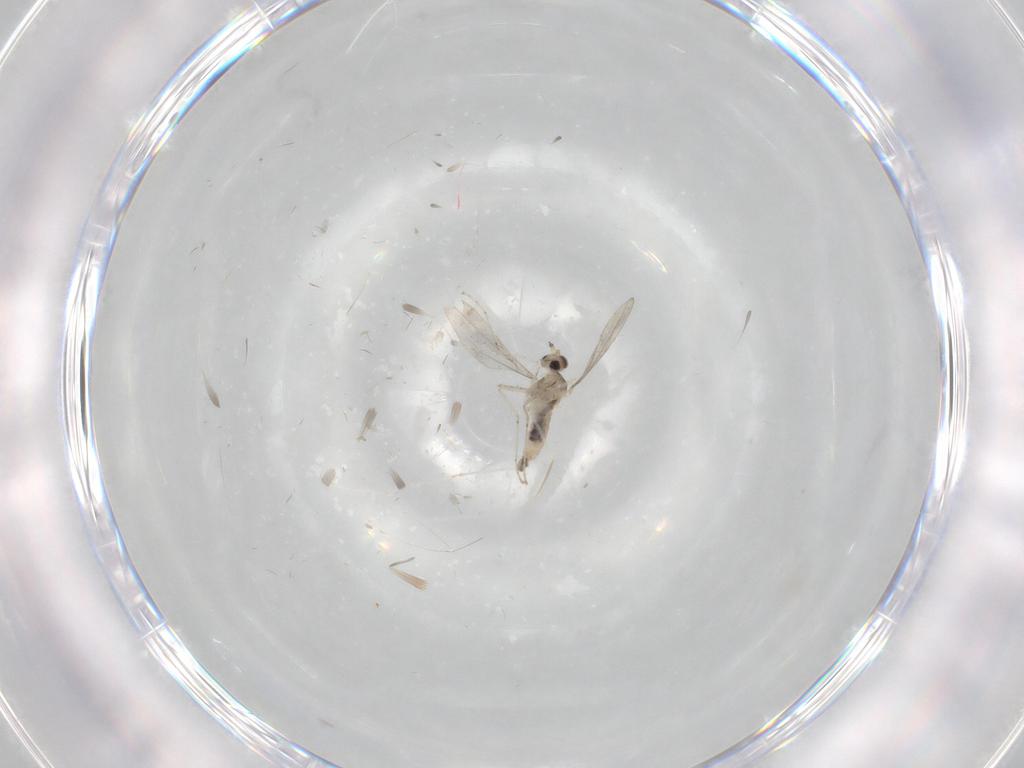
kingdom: Animalia
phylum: Arthropoda
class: Insecta
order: Diptera
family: Cecidomyiidae
